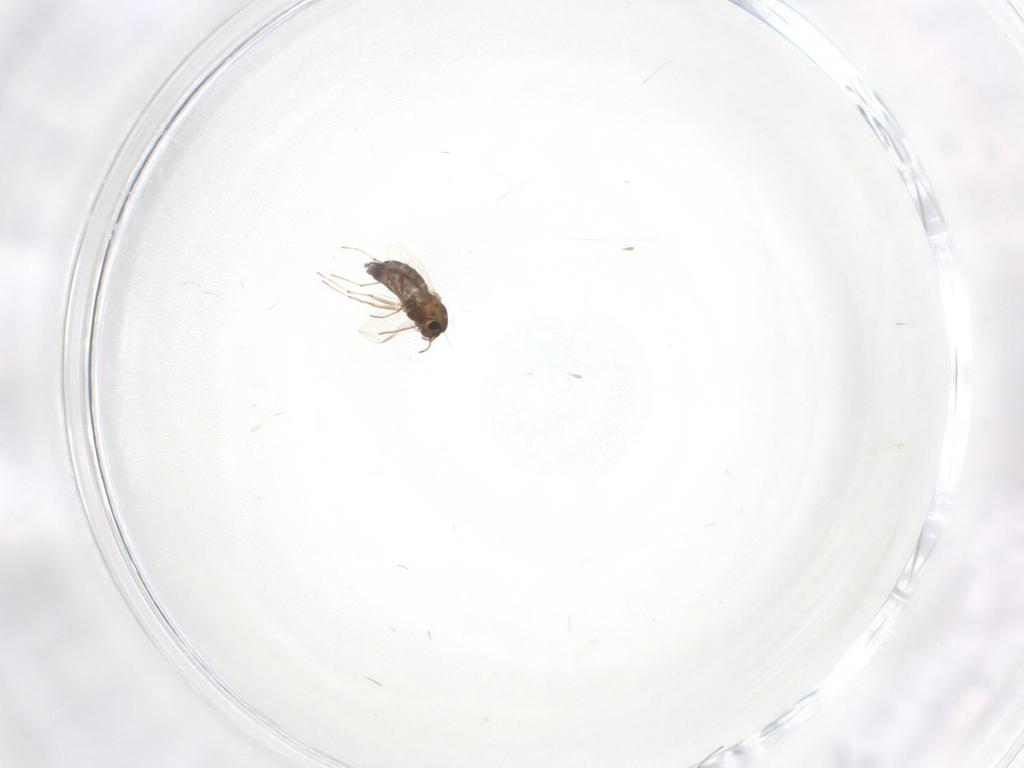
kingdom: Animalia
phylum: Arthropoda
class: Insecta
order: Diptera
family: Chironomidae
